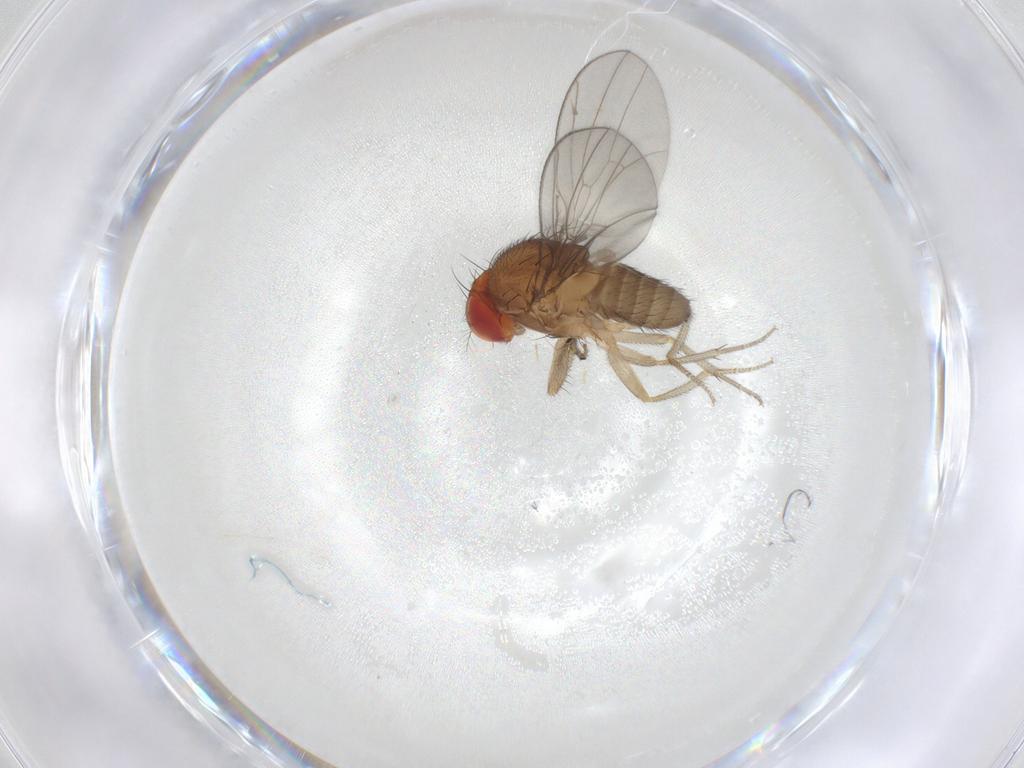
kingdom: Animalia
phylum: Arthropoda
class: Insecta
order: Diptera
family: Drosophilidae
